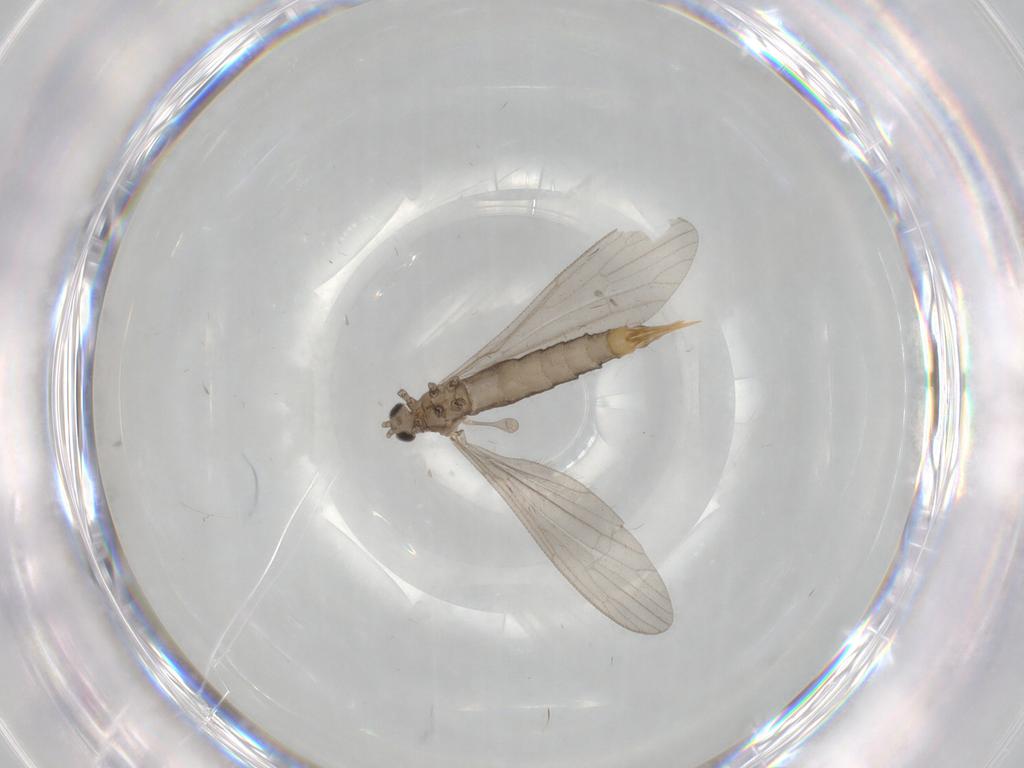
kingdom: Animalia
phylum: Arthropoda
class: Insecta
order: Diptera
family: Limoniidae
